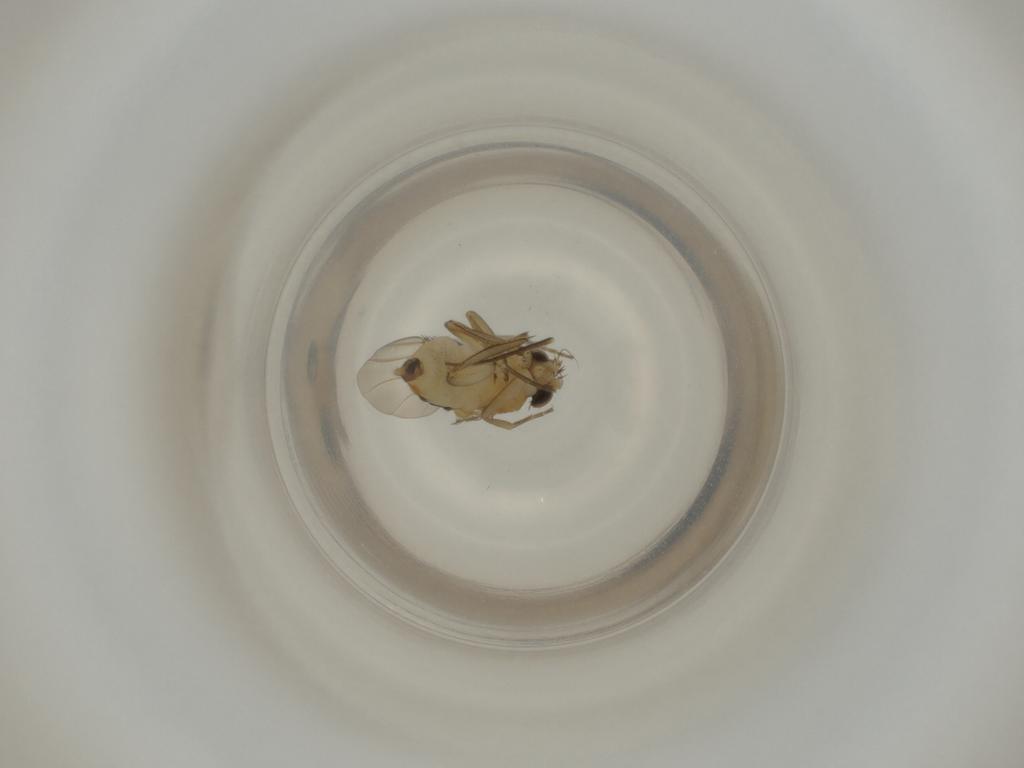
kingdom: Animalia
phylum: Arthropoda
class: Insecta
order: Diptera
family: Phoridae
